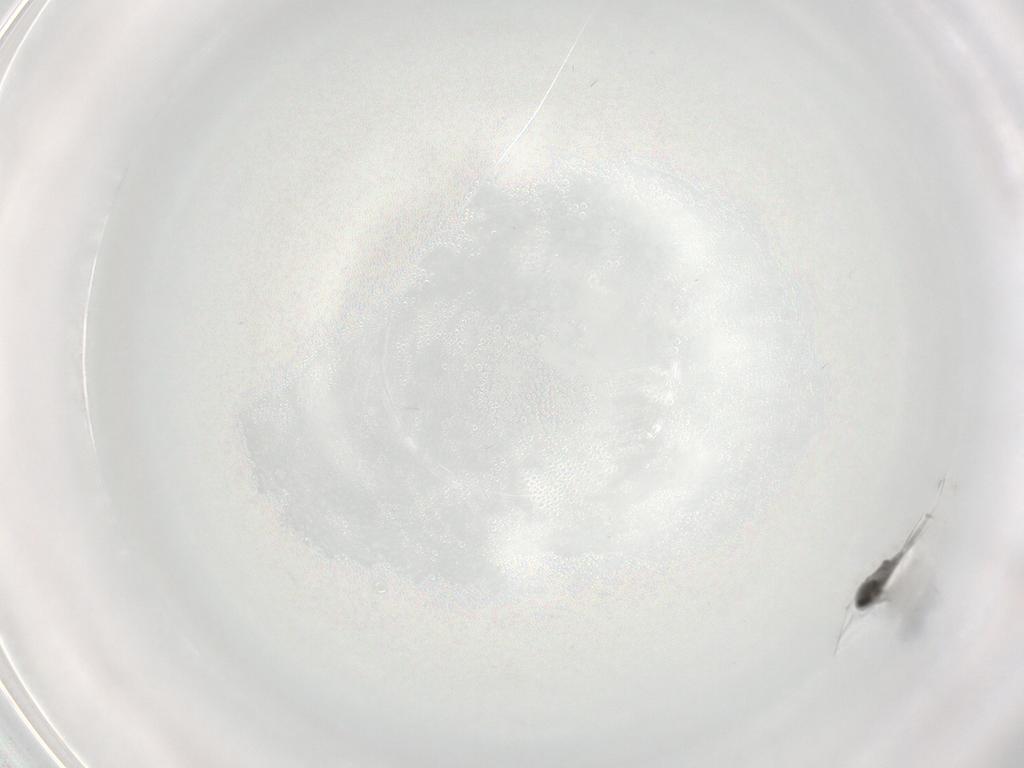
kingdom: Animalia
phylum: Arthropoda
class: Insecta
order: Diptera
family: Cecidomyiidae
